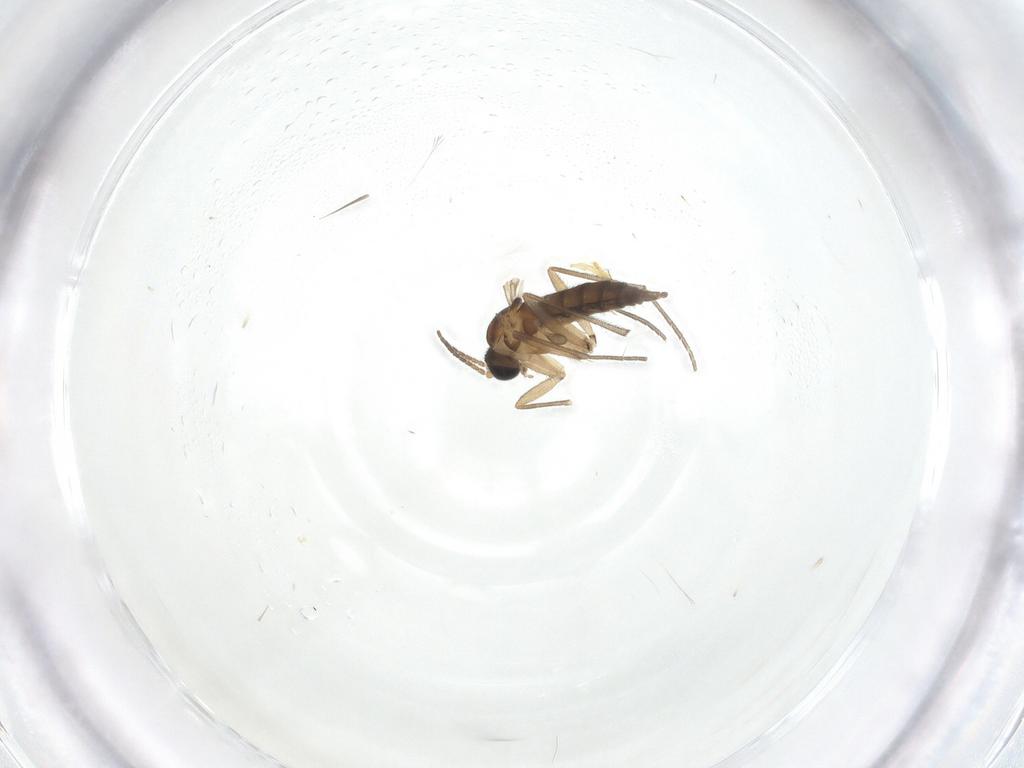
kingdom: Animalia
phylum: Arthropoda
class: Insecta
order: Diptera
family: Sciaridae
